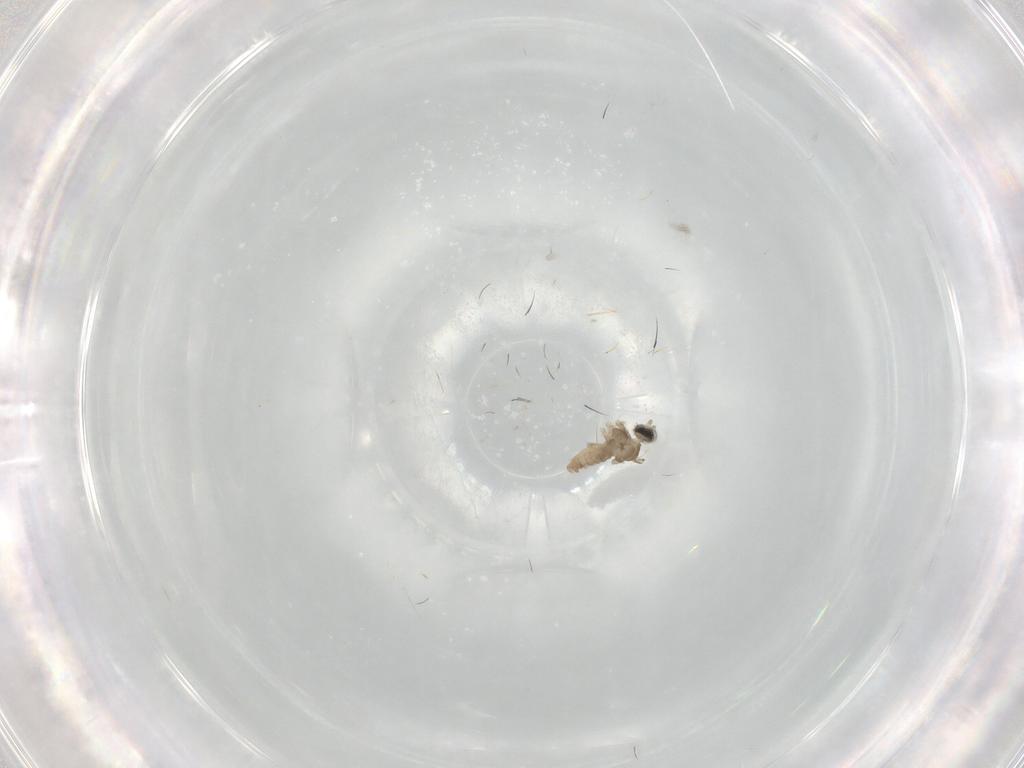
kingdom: Animalia
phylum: Arthropoda
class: Insecta
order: Diptera
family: Cecidomyiidae
